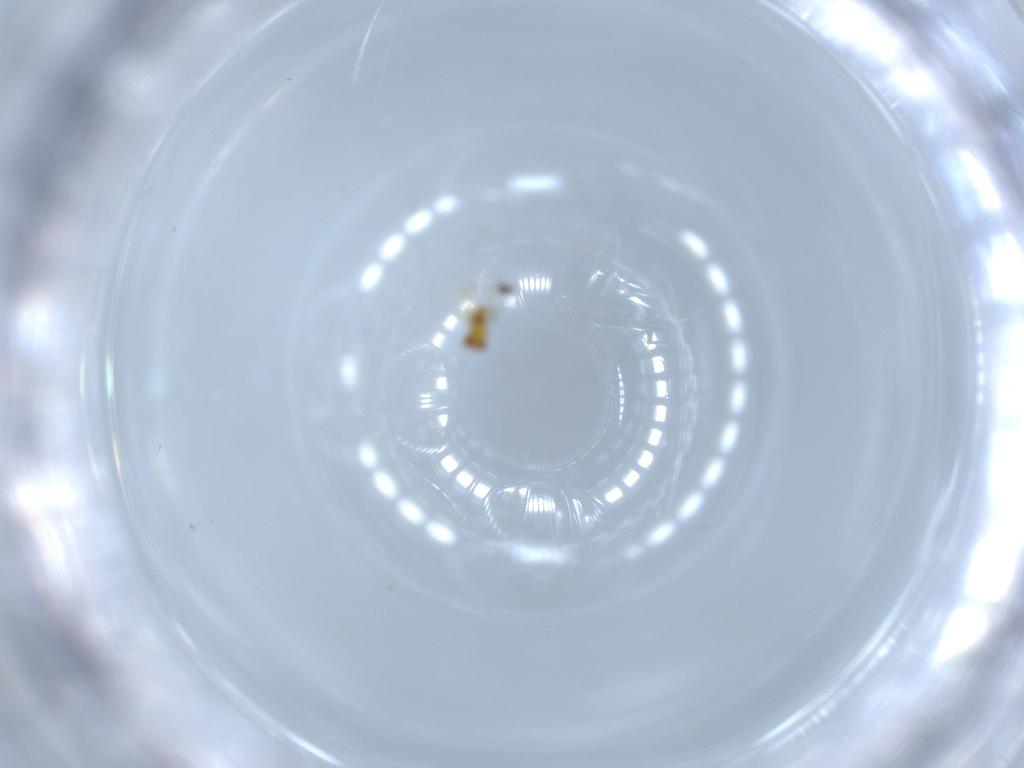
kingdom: Animalia
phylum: Arthropoda
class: Insecta
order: Hymenoptera
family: Trichogrammatidae
